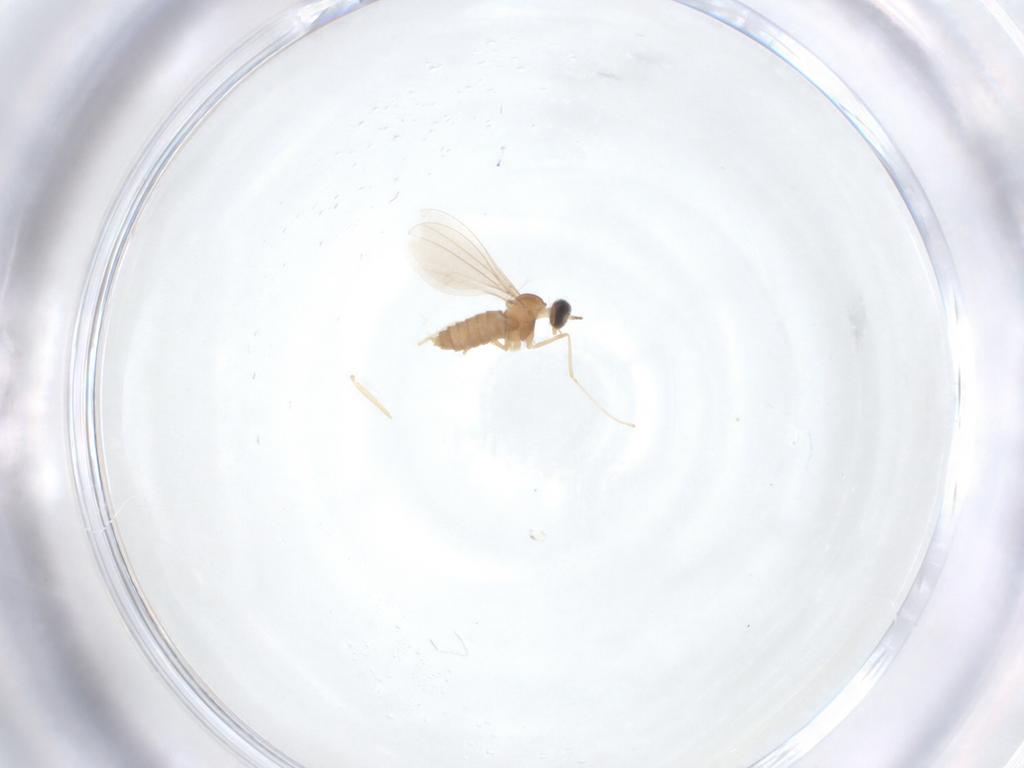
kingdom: Animalia
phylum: Arthropoda
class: Insecta
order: Diptera
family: Cecidomyiidae
